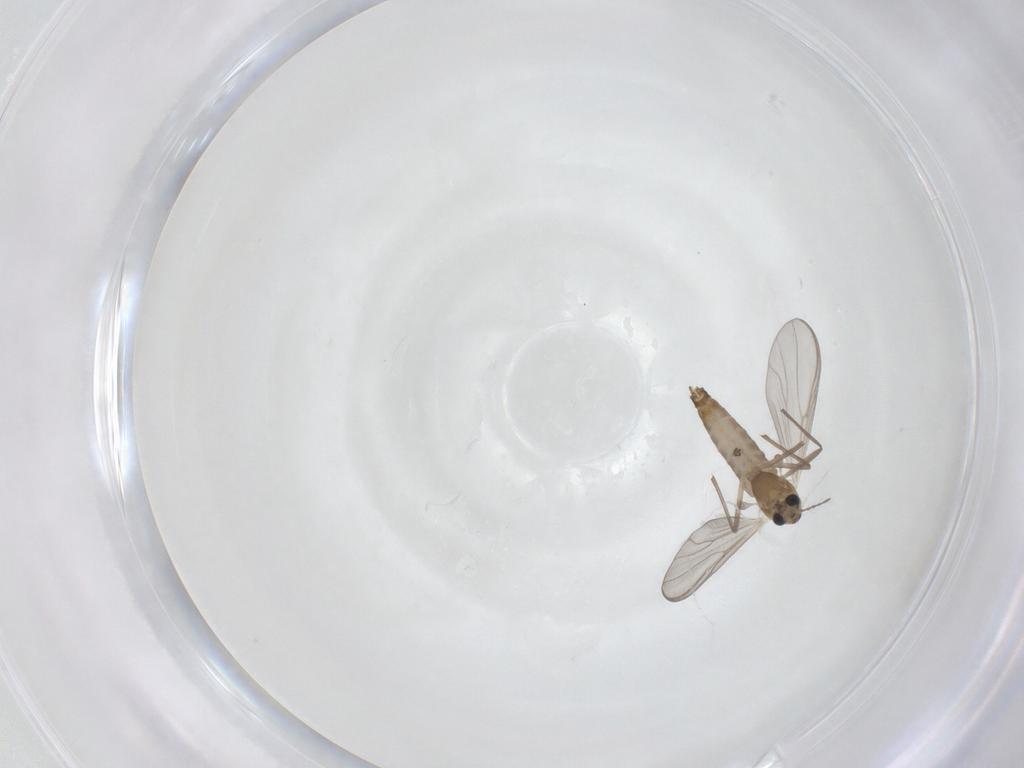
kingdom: Animalia
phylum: Arthropoda
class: Insecta
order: Diptera
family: Chironomidae
